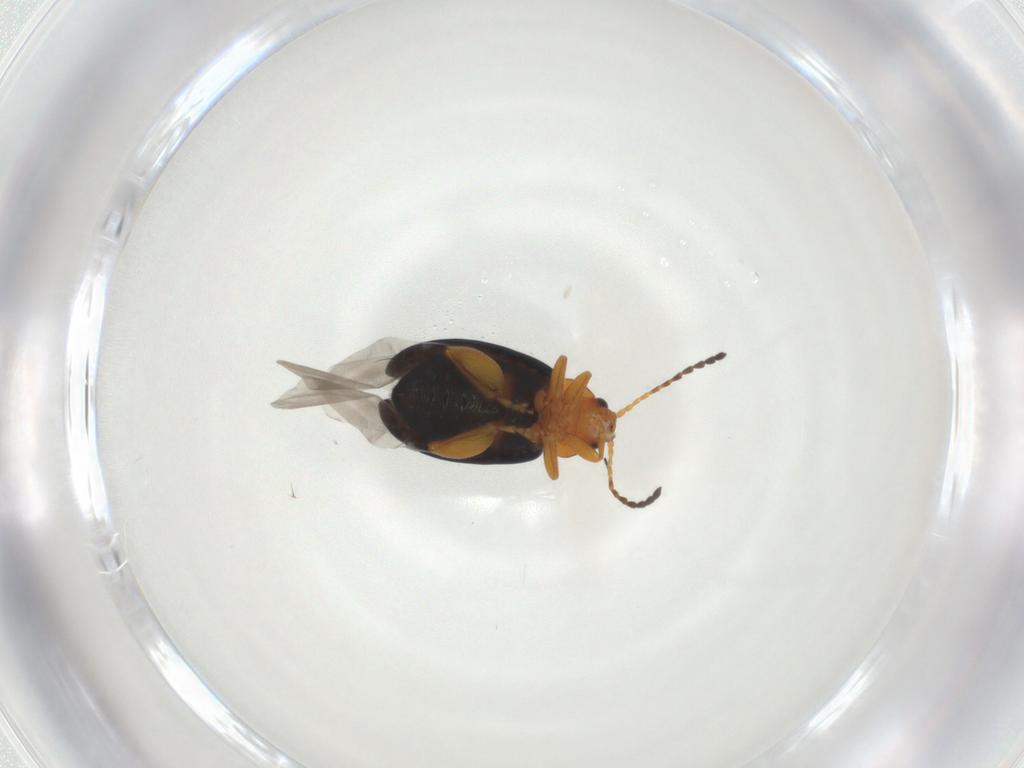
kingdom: Animalia
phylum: Arthropoda
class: Insecta
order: Coleoptera
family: Chrysomelidae
